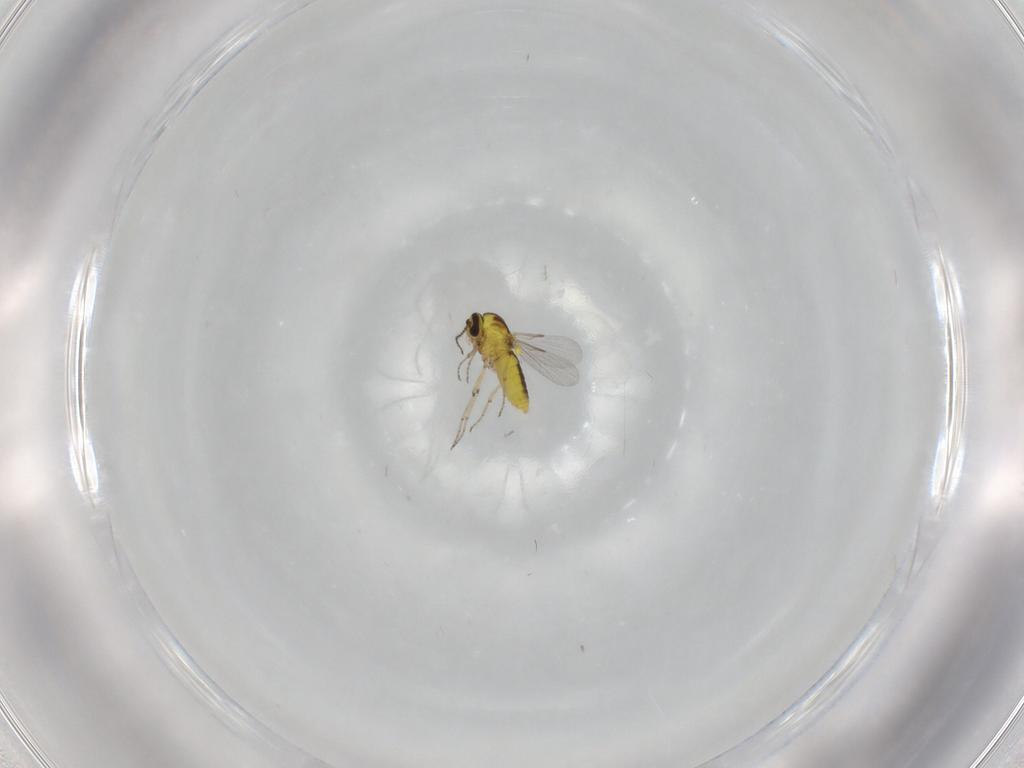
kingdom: Animalia
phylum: Arthropoda
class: Insecta
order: Diptera
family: Ceratopogonidae
